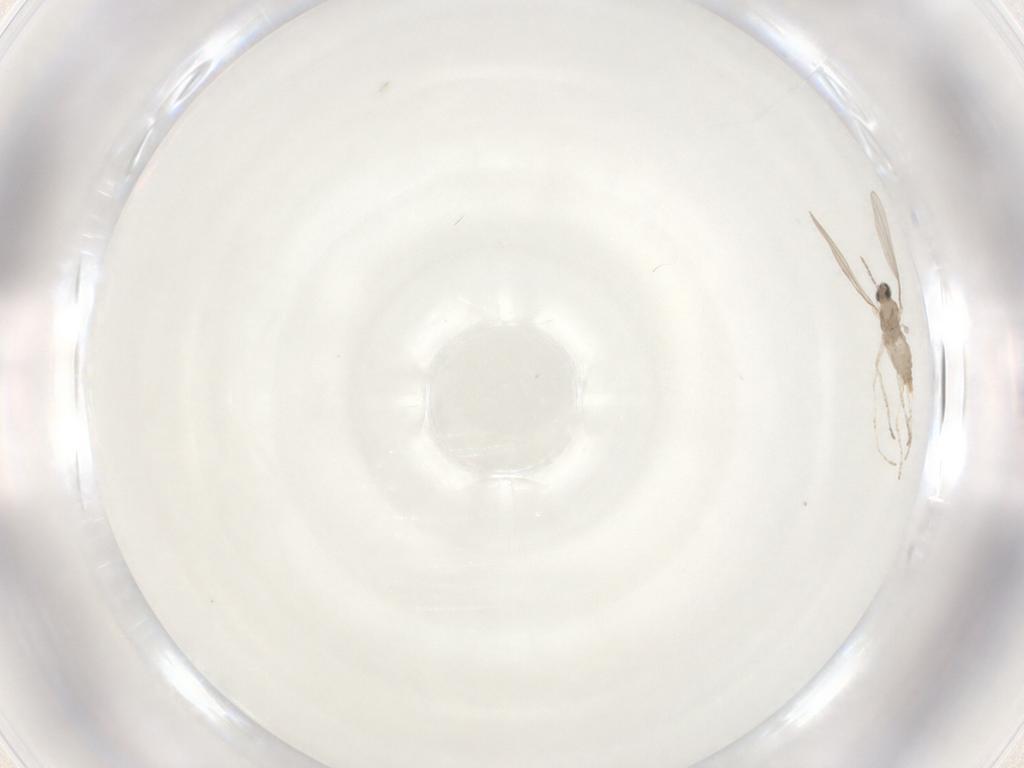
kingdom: Animalia
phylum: Arthropoda
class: Insecta
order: Diptera
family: Cecidomyiidae
